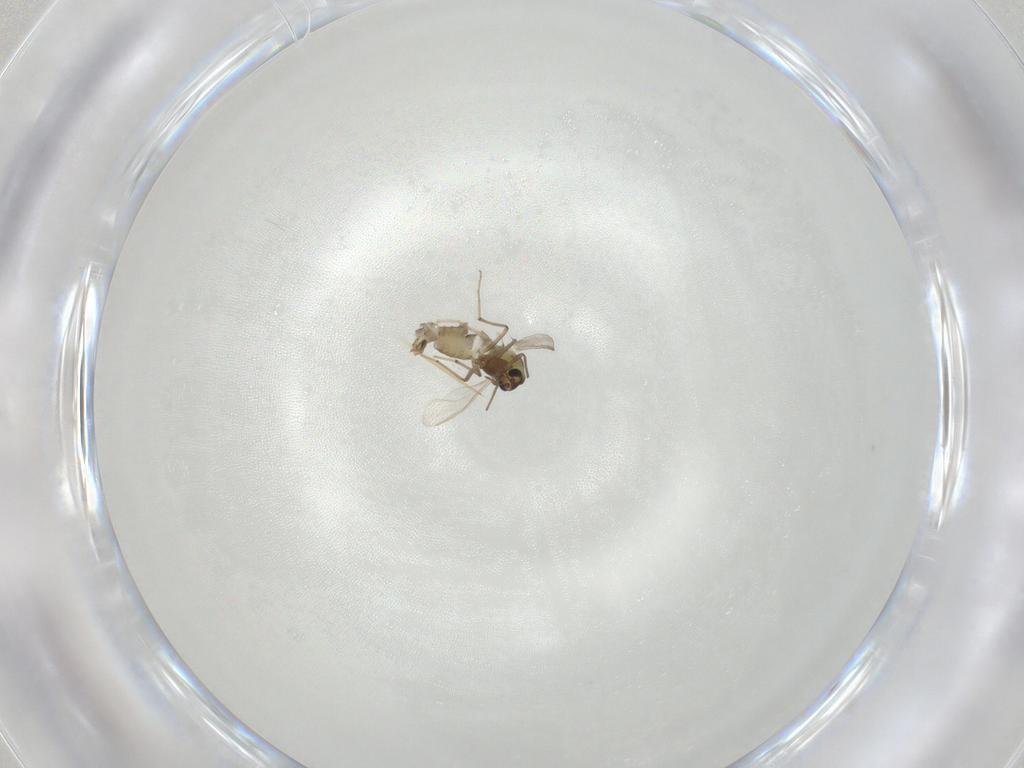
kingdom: Animalia
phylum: Arthropoda
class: Insecta
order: Diptera
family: Chironomidae
